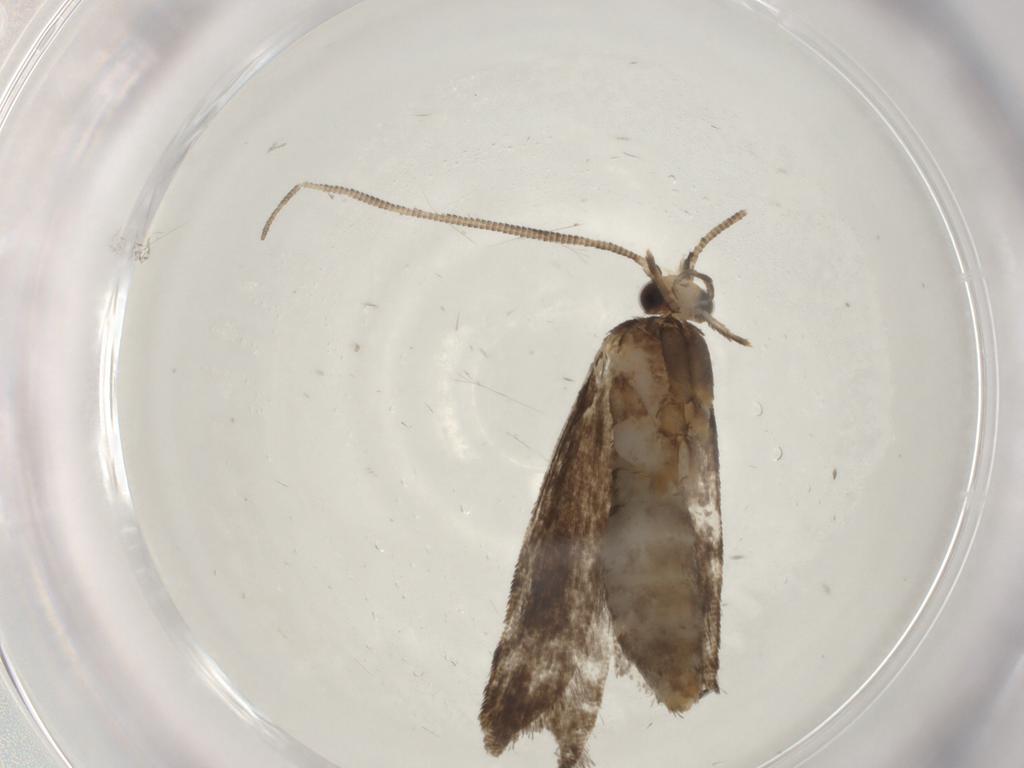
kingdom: Animalia
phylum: Arthropoda
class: Insecta
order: Lepidoptera
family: Tineidae
